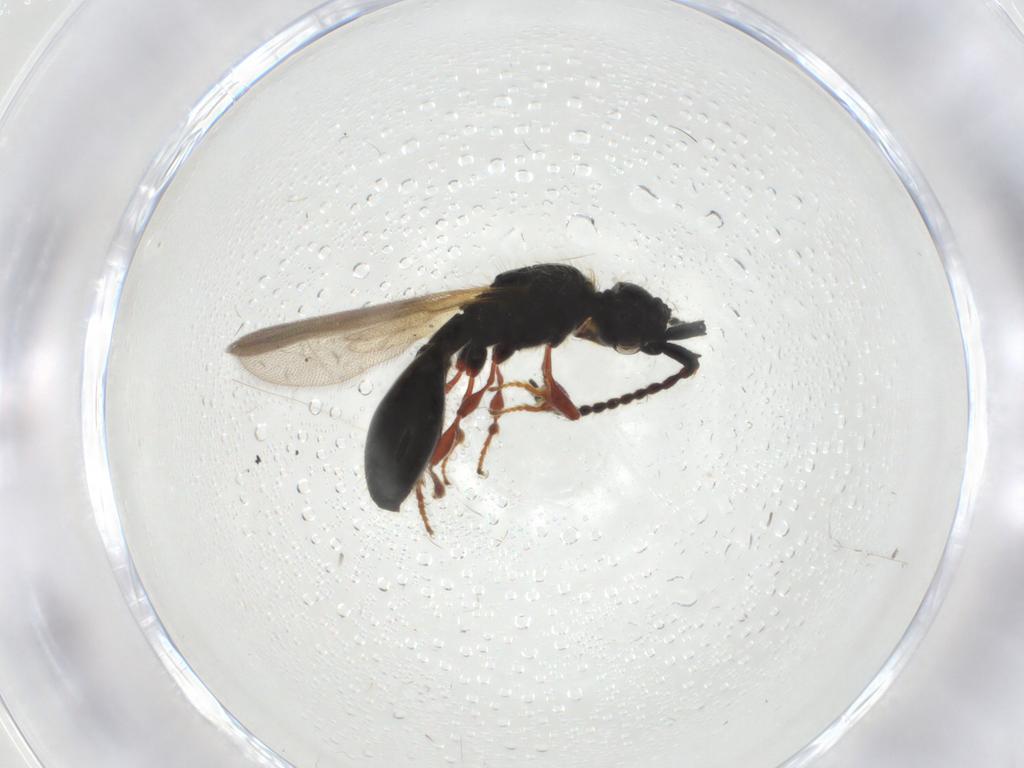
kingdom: Animalia
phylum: Arthropoda
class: Insecta
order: Hymenoptera
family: Diapriidae
